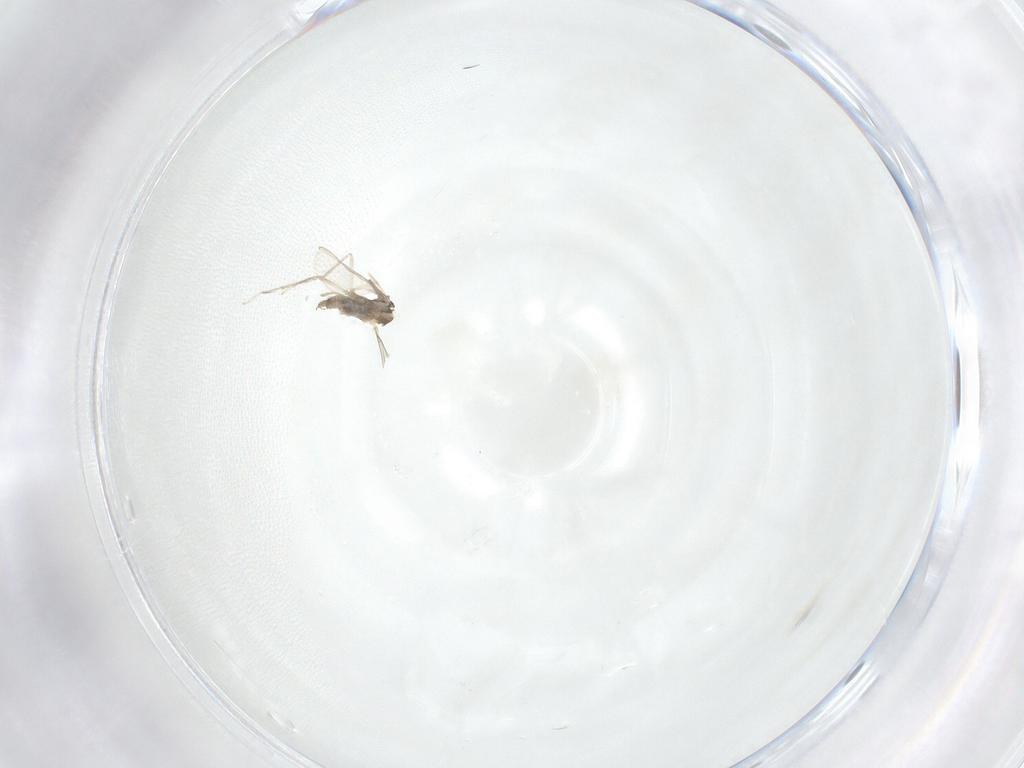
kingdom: Animalia
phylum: Arthropoda
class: Insecta
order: Diptera
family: Cecidomyiidae
